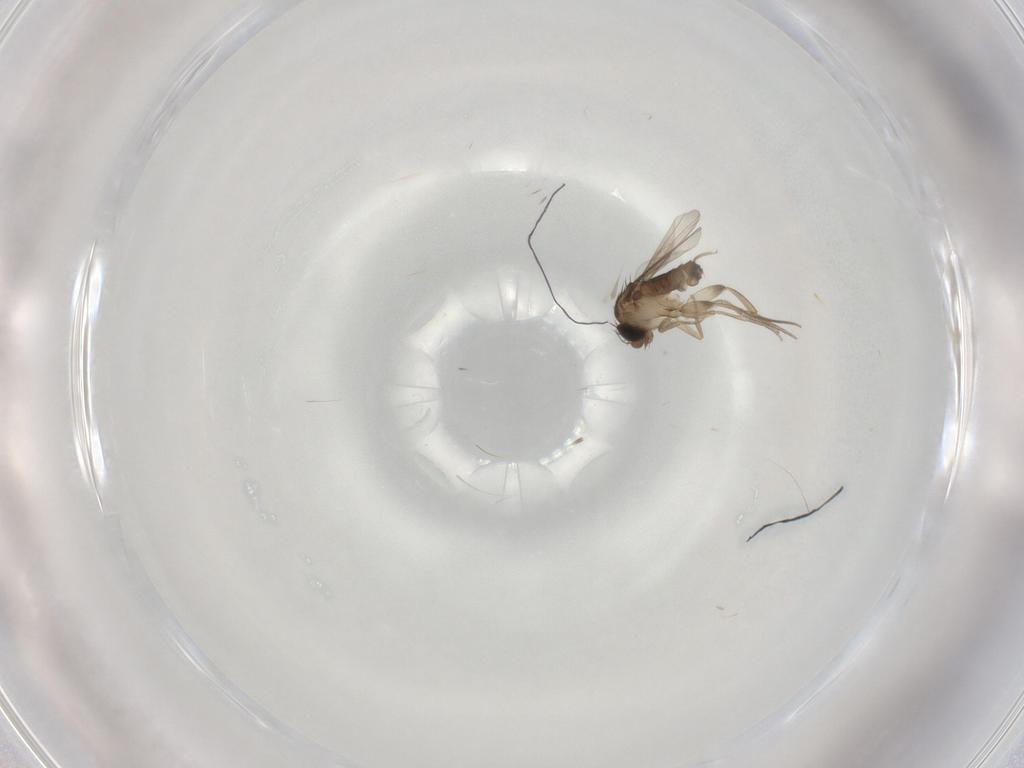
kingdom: Animalia
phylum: Arthropoda
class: Insecta
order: Diptera
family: Phoridae
